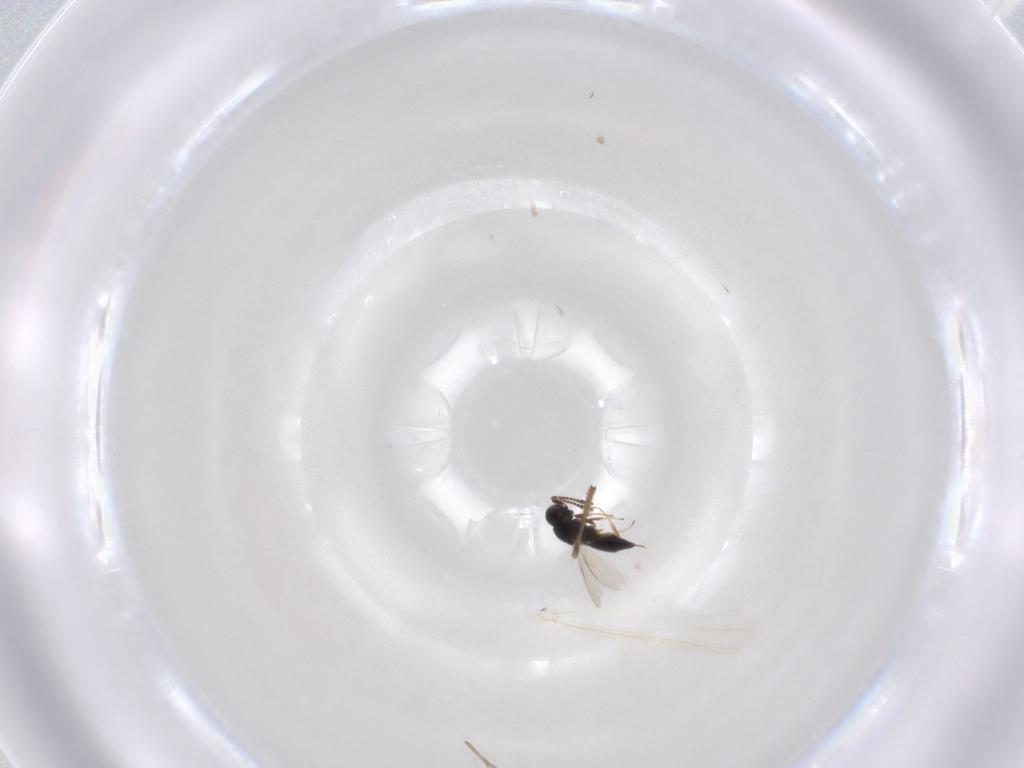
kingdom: Animalia
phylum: Arthropoda
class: Insecta
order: Hymenoptera
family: Scelionidae
